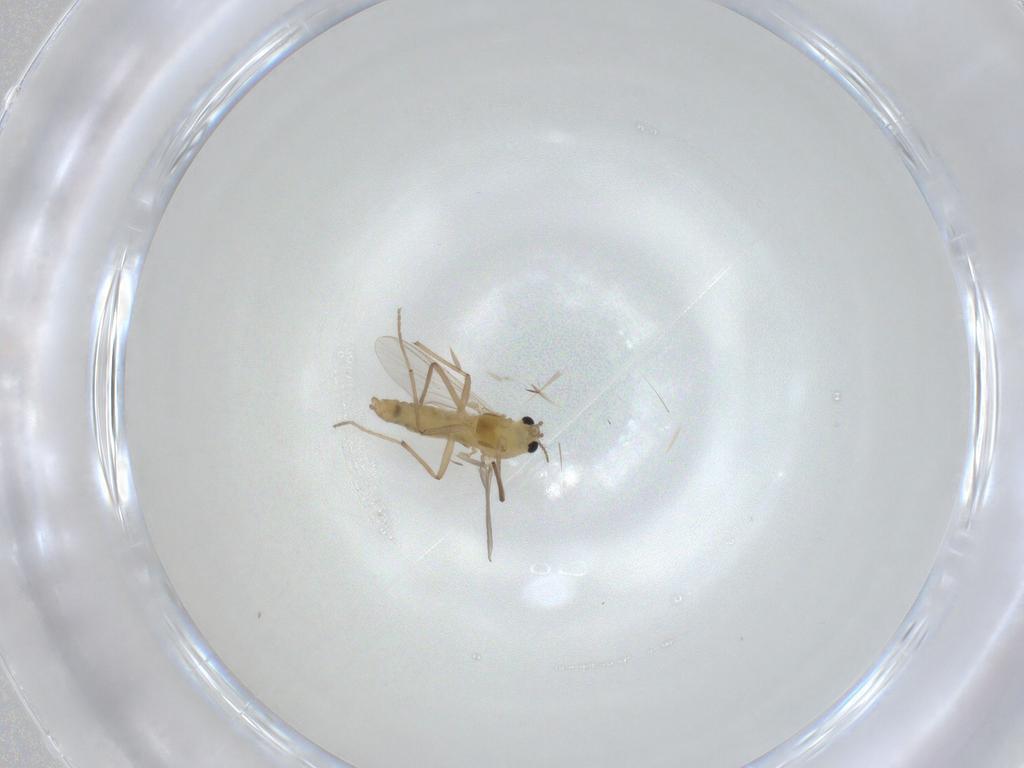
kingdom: Animalia
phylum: Arthropoda
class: Insecta
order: Diptera
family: Chironomidae
